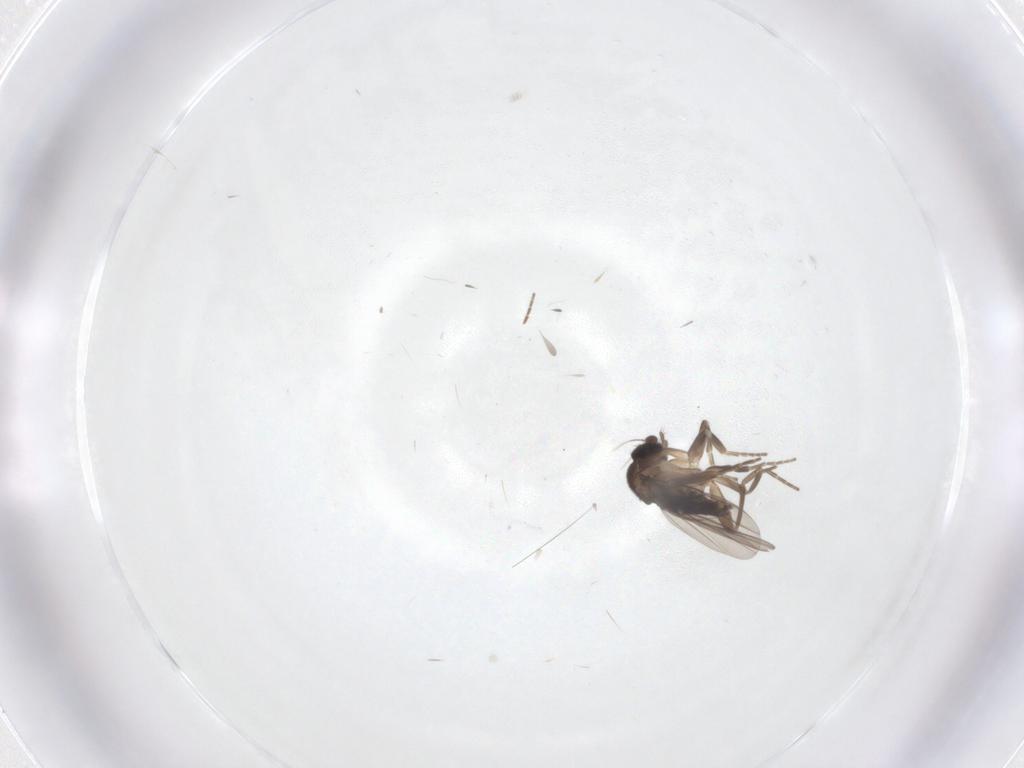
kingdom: Animalia
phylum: Arthropoda
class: Insecta
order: Diptera
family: Phoridae
